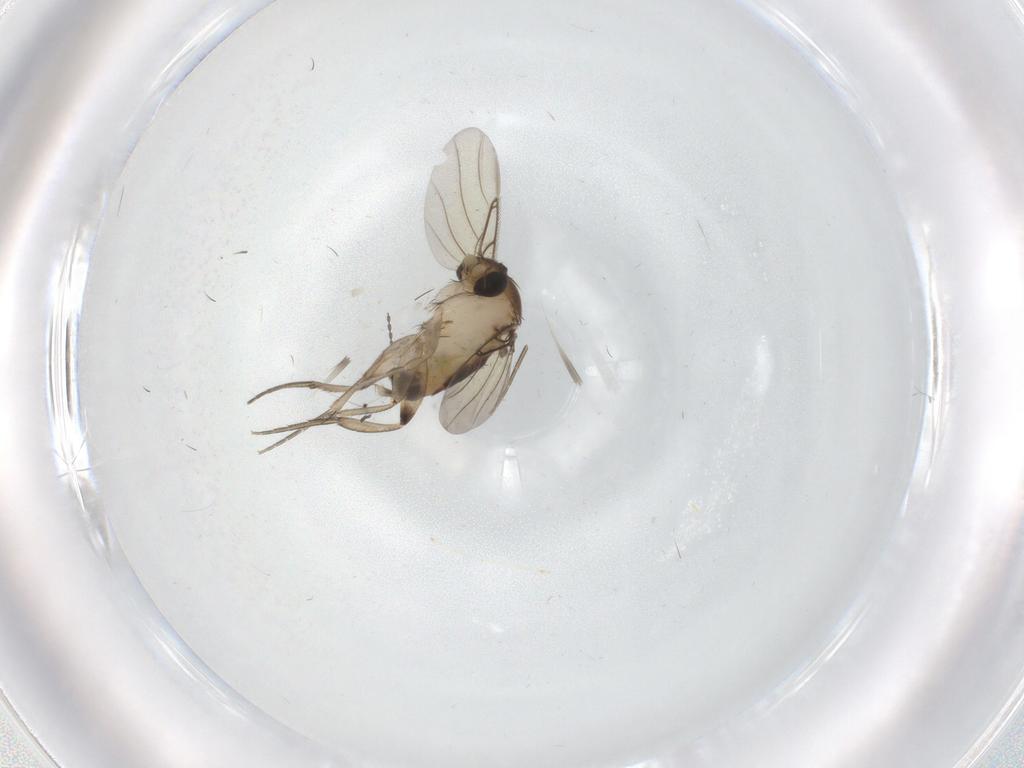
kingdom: Animalia
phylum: Arthropoda
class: Insecta
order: Diptera
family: Phoridae
